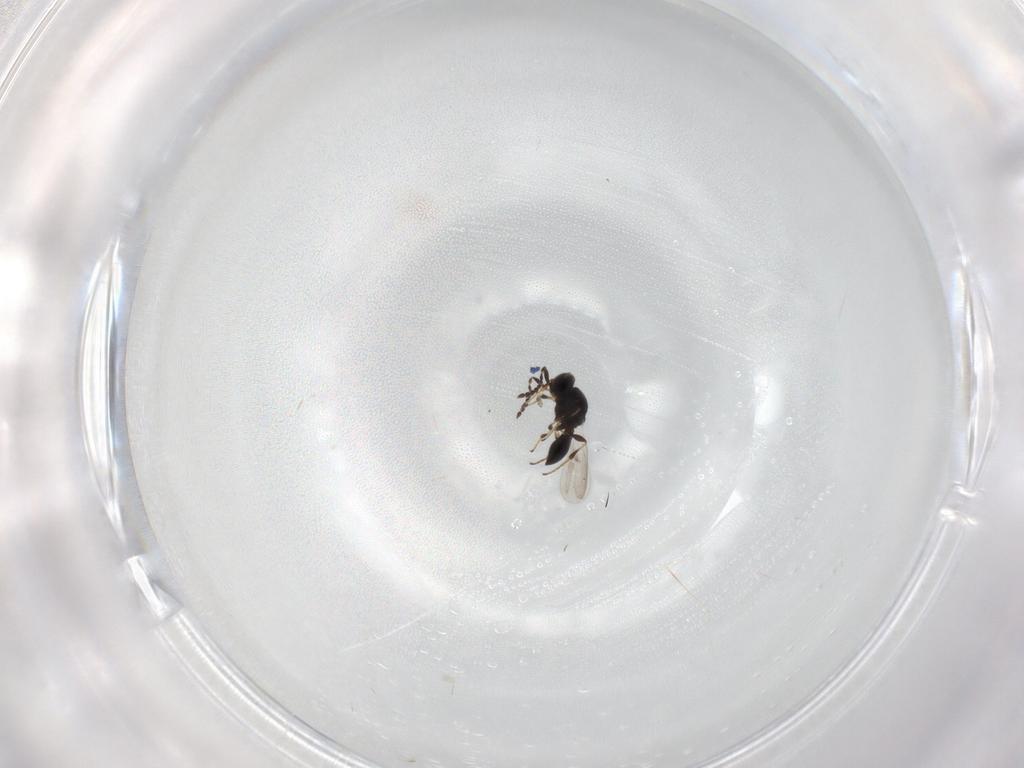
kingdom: Animalia
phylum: Arthropoda
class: Insecta
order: Hymenoptera
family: Platygastridae
